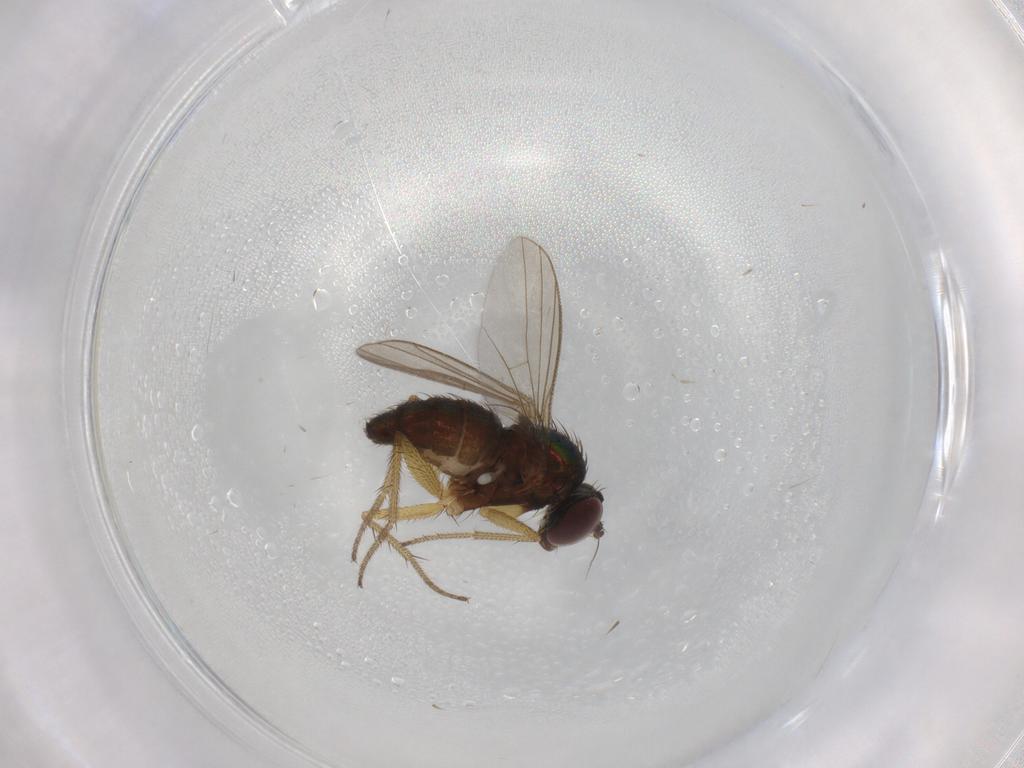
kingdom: Animalia
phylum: Arthropoda
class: Insecta
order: Diptera
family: Dolichopodidae
